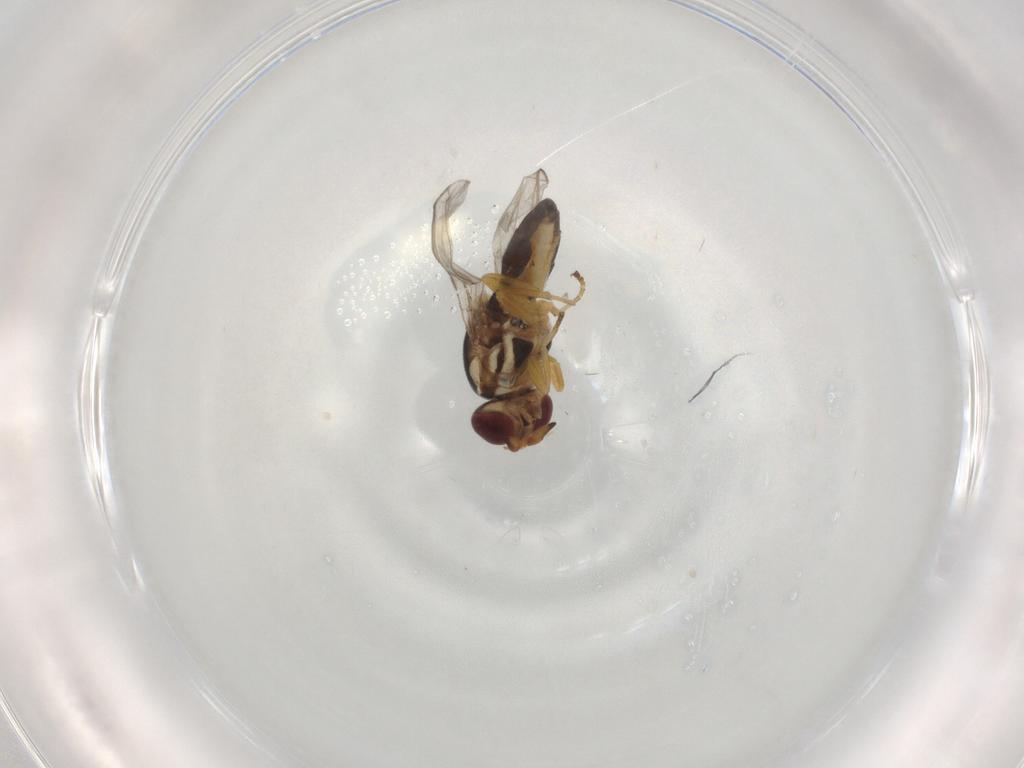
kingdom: Animalia
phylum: Arthropoda
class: Insecta
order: Diptera
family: Chloropidae
